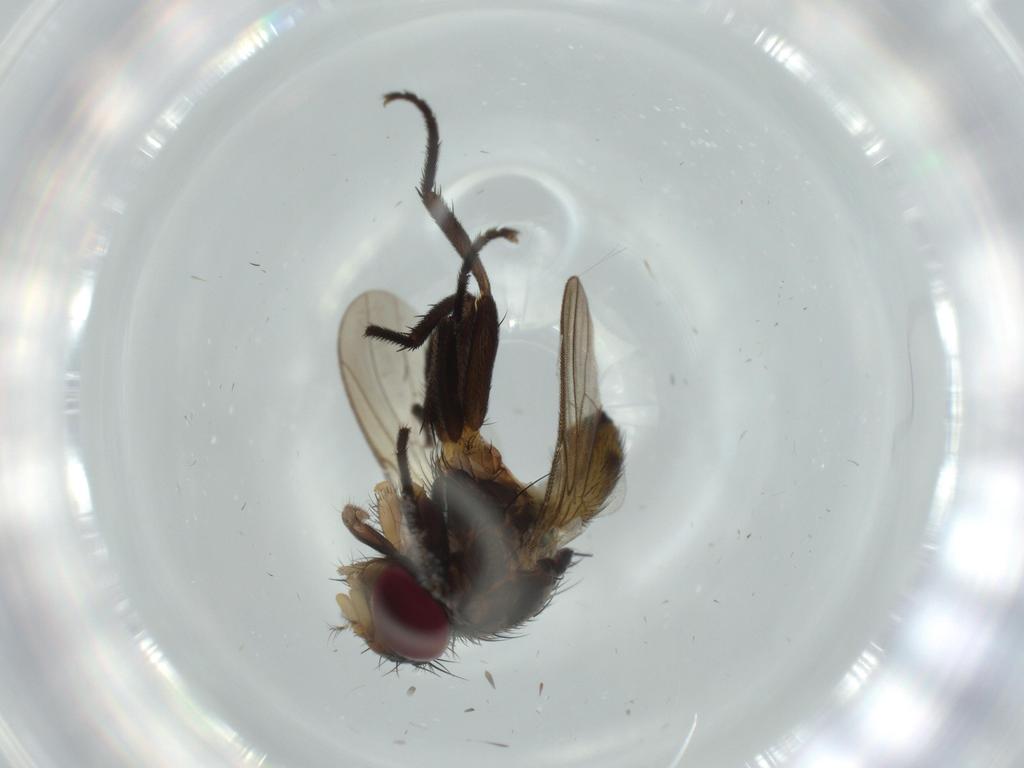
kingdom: Animalia
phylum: Arthropoda
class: Insecta
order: Diptera
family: Anthomyiidae
